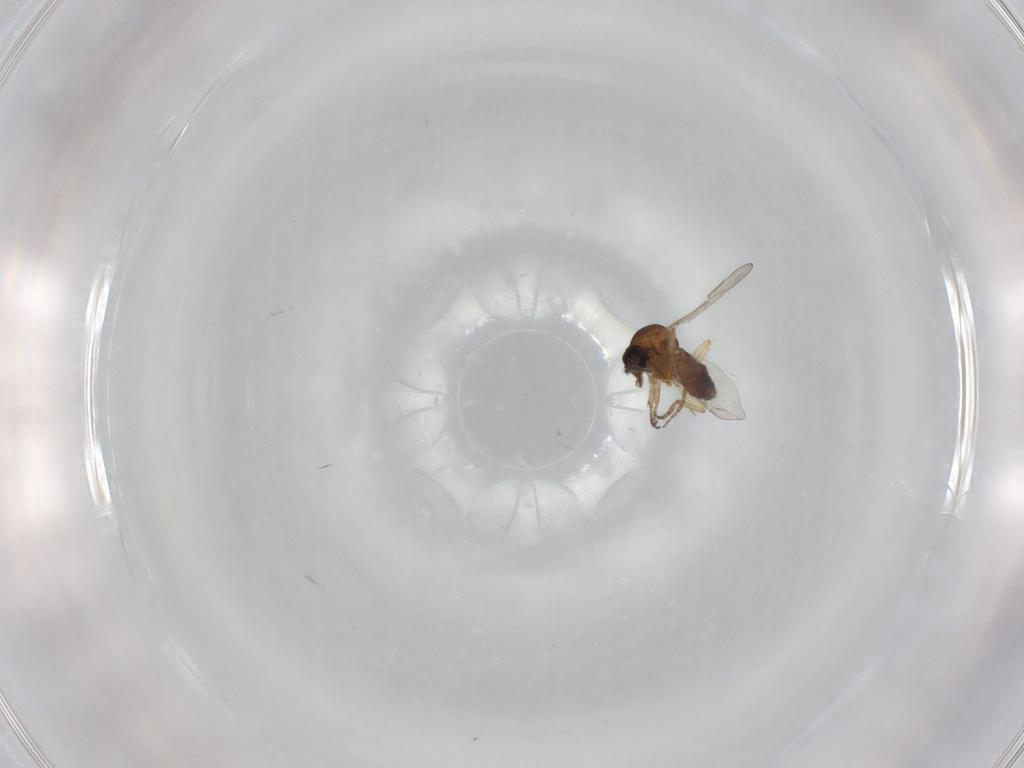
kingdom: Animalia
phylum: Arthropoda
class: Insecta
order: Diptera
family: Ceratopogonidae
